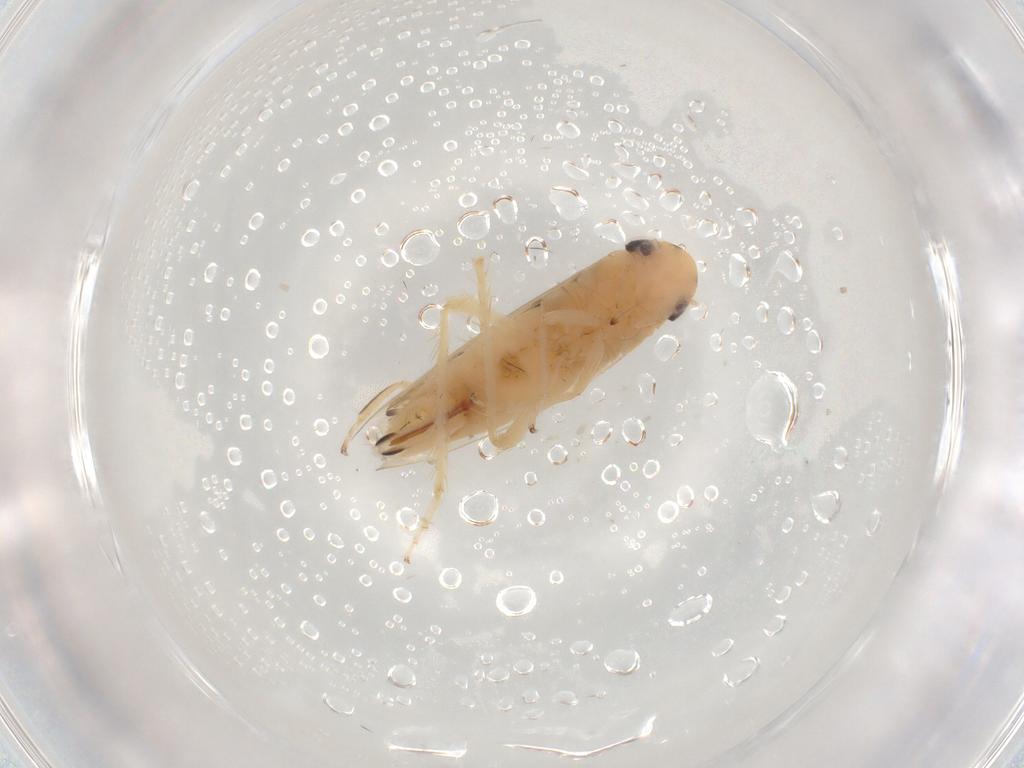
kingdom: Animalia
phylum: Arthropoda
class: Insecta
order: Hemiptera
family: Cicadellidae
